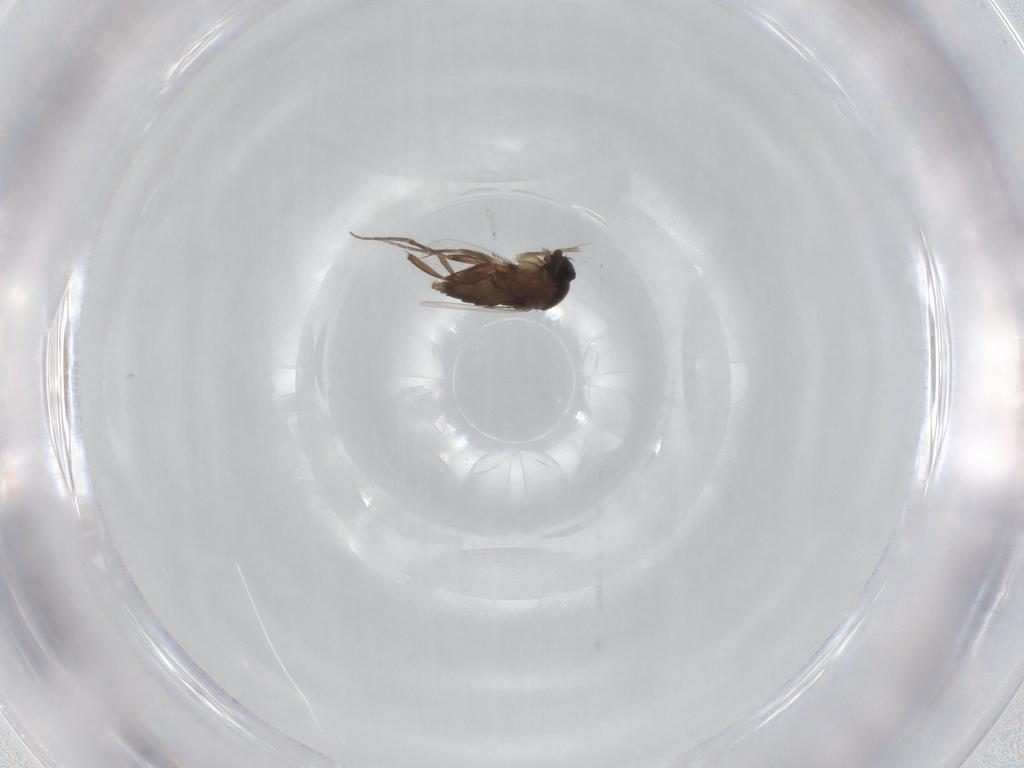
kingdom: Animalia
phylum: Arthropoda
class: Insecta
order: Diptera
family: Phoridae
